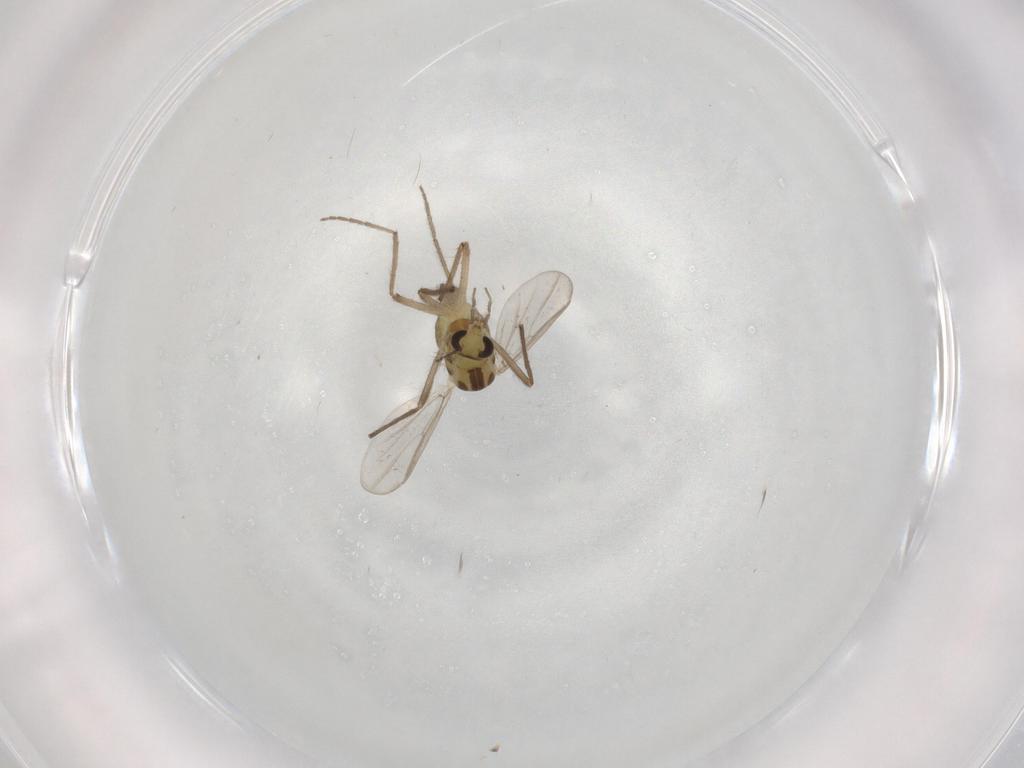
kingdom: Animalia
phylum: Arthropoda
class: Insecta
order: Diptera
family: Chironomidae
